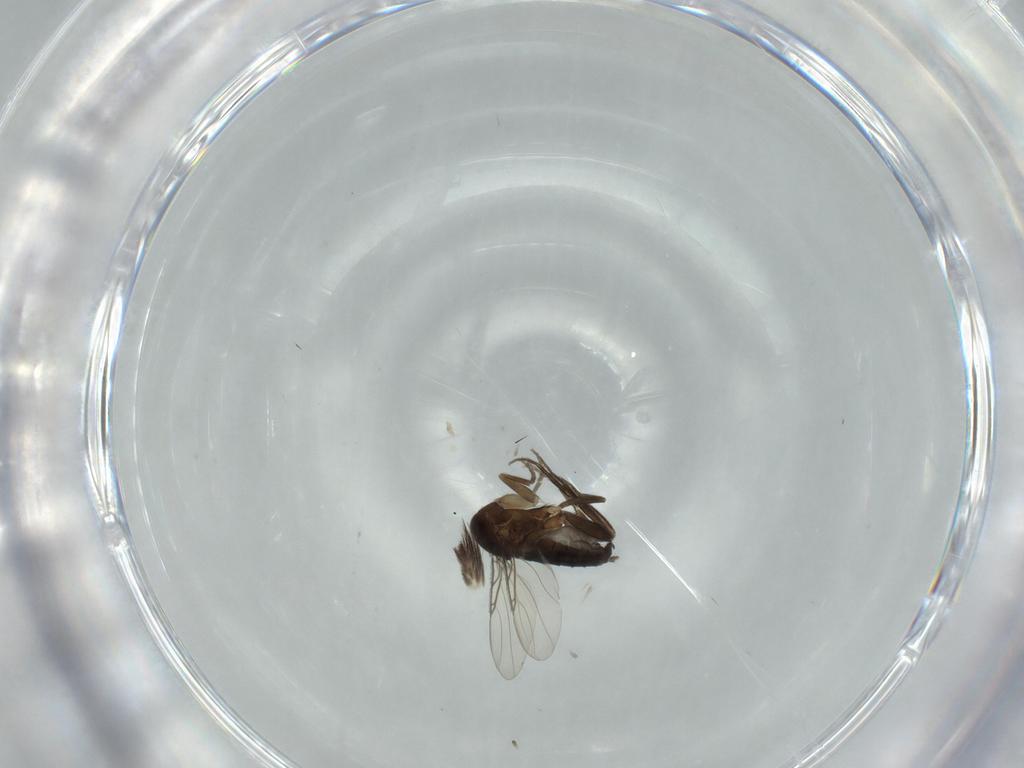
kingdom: Animalia
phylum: Arthropoda
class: Insecta
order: Diptera
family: Phoridae
